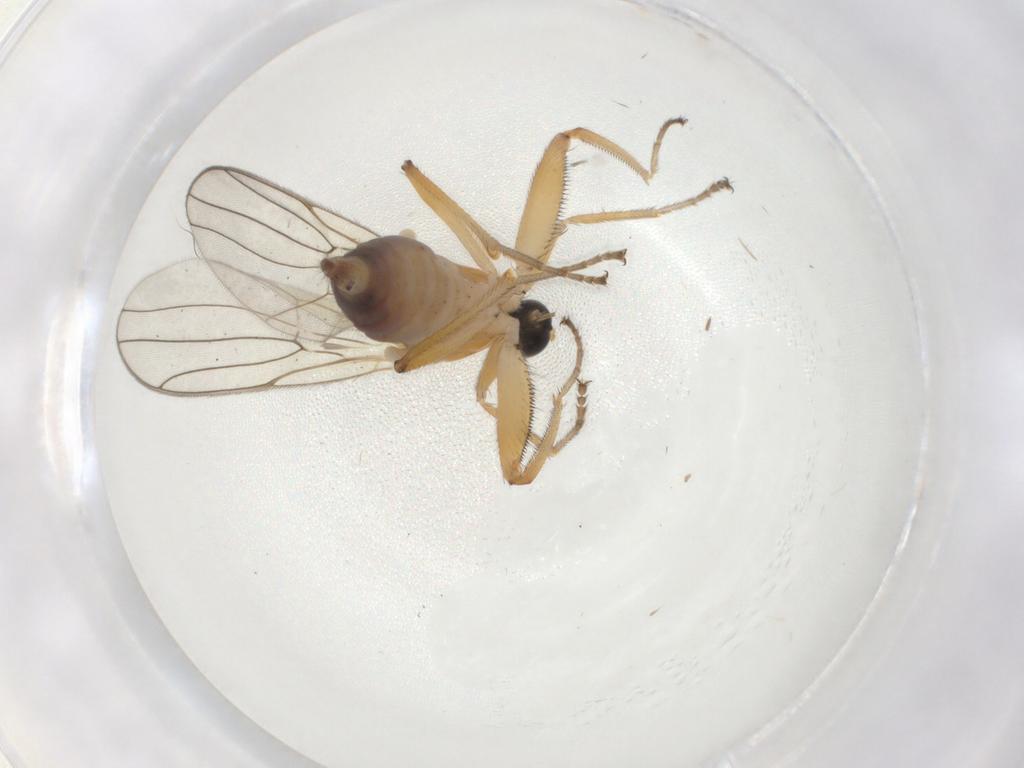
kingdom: Animalia
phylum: Arthropoda
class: Insecta
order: Diptera
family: Hybotidae
